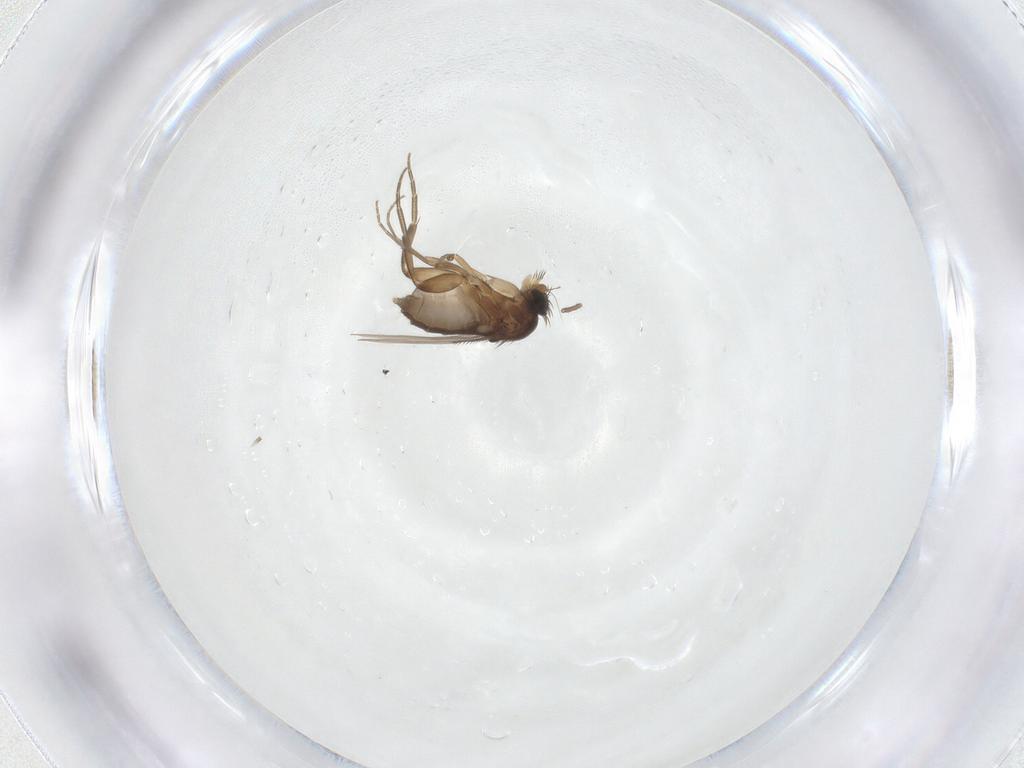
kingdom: Animalia
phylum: Arthropoda
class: Insecta
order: Diptera
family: Phoridae
